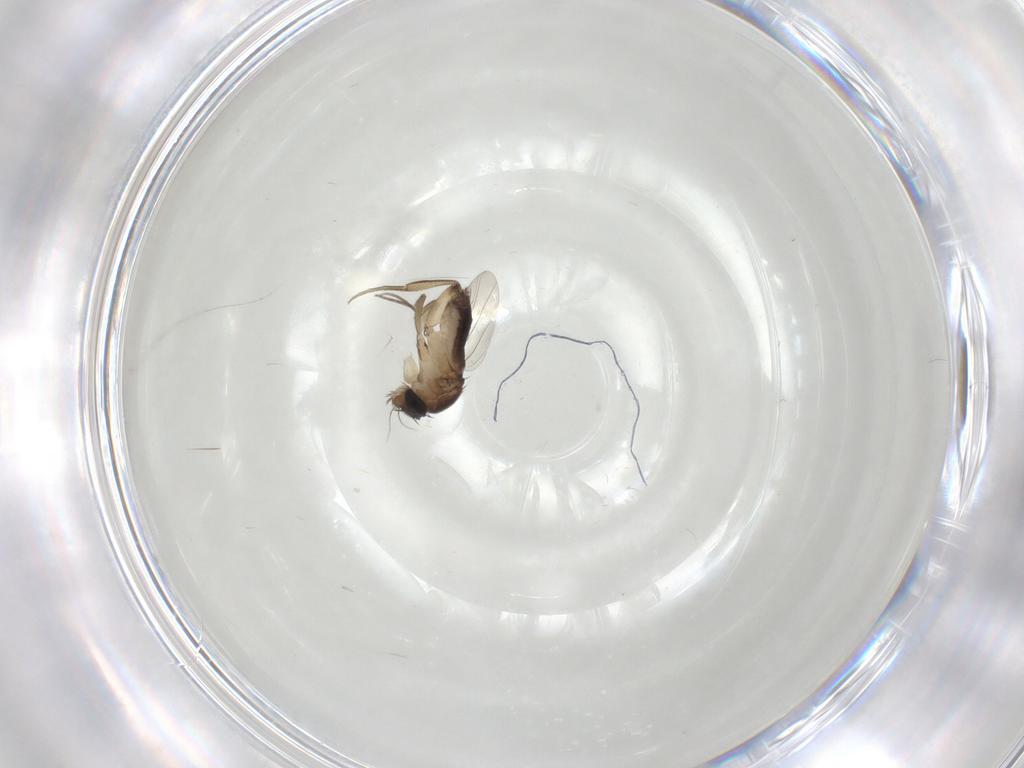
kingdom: Animalia
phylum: Arthropoda
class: Insecta
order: Diptera
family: Phoridae
